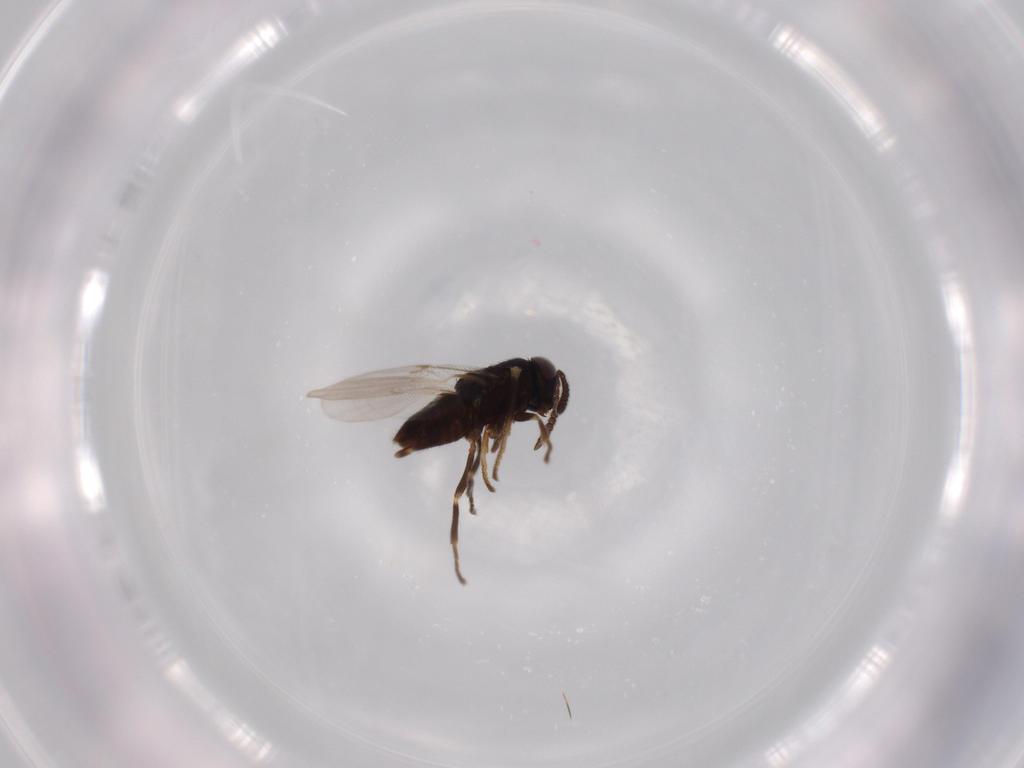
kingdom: Animalia
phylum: Arthropoda
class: Insecta
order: Hymenoptera
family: Encyrtidae
